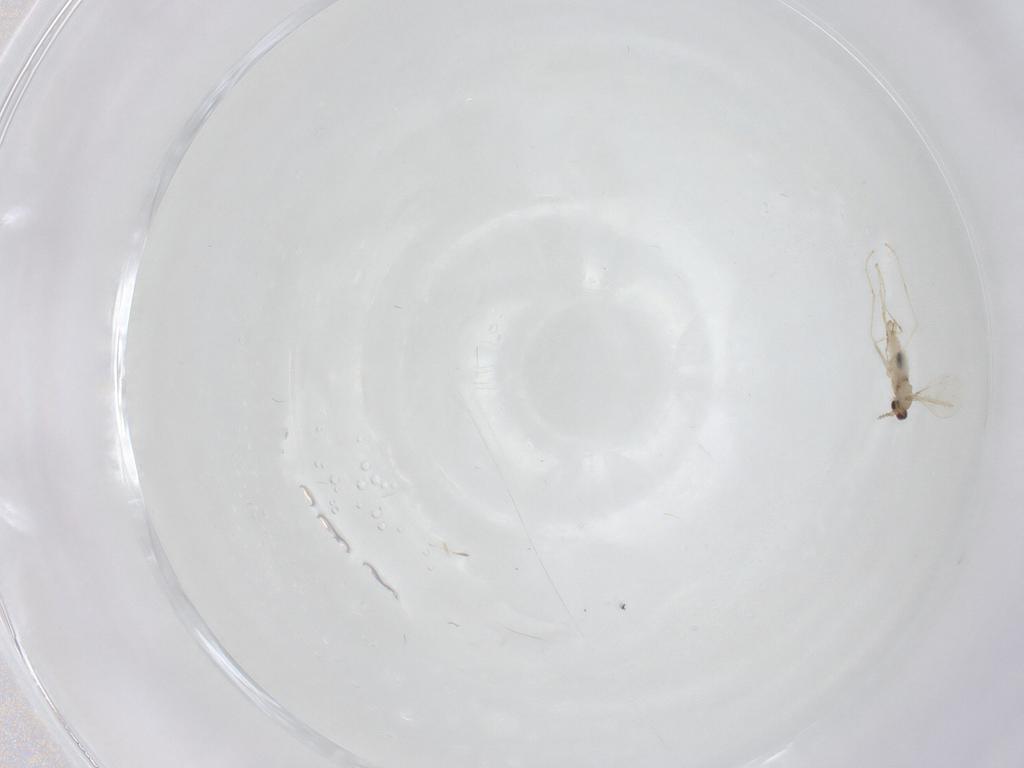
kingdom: Animalia
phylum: Arthropoda
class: Insecta
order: Diptera
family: Cecidomyiidae
